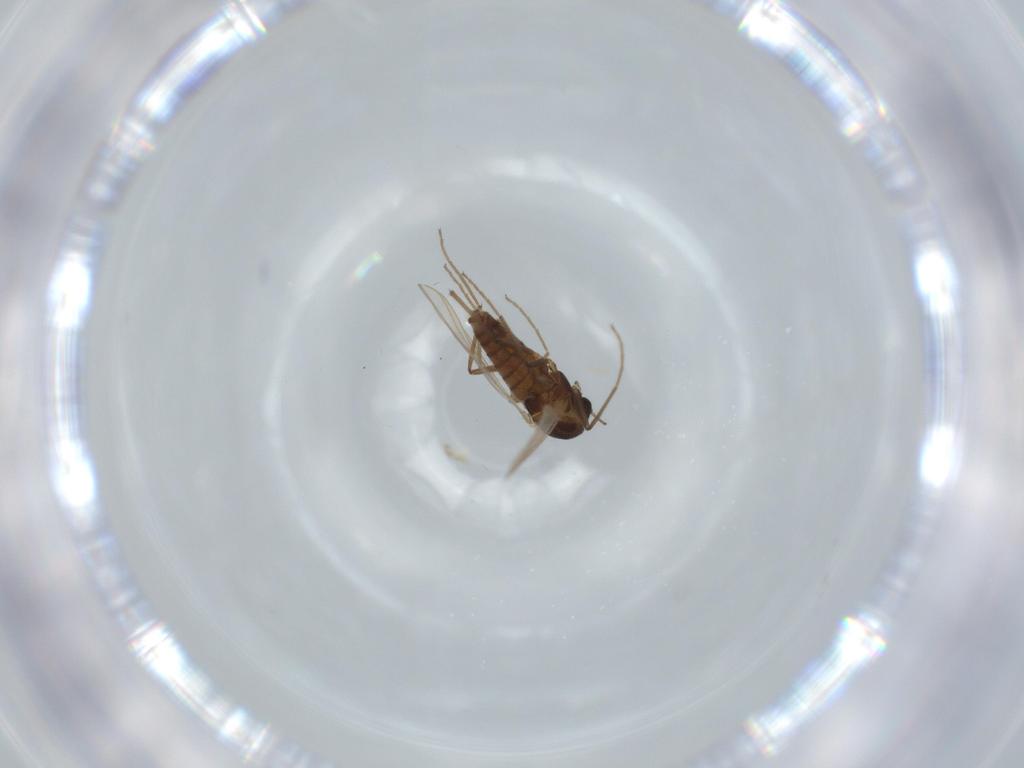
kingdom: Animalia
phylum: Arthropoda
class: Insecta
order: Diptera
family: Chironomidae
